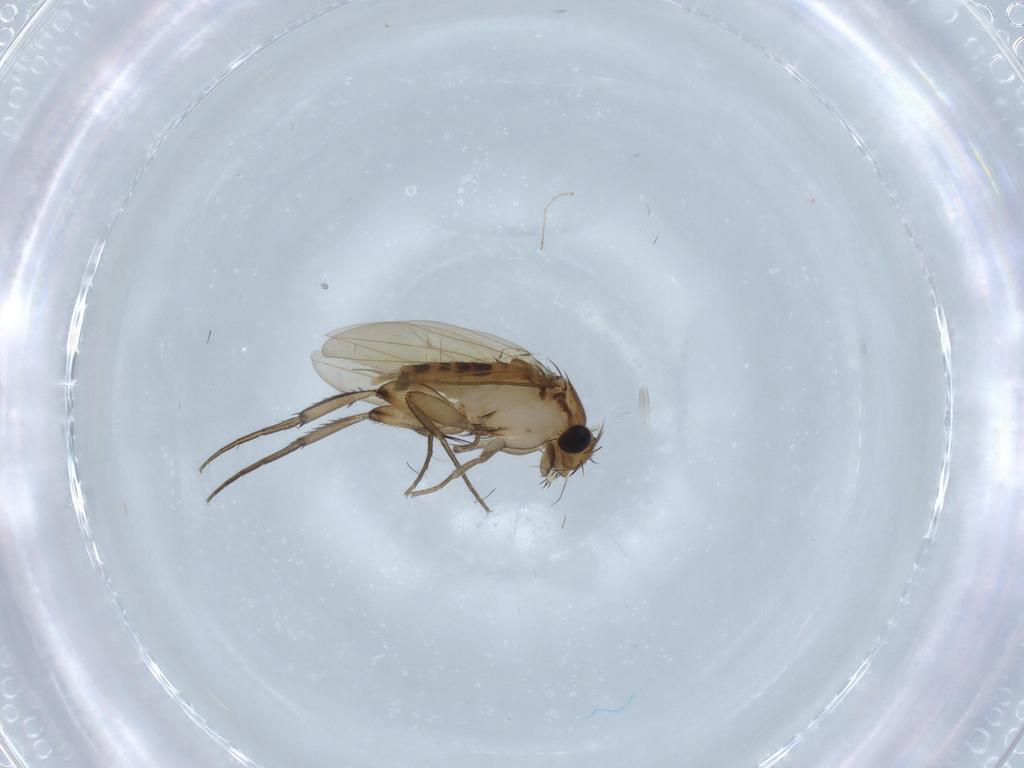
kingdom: Animalia
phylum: Arthropoda
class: Insecta
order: Diptera
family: Phoridae
